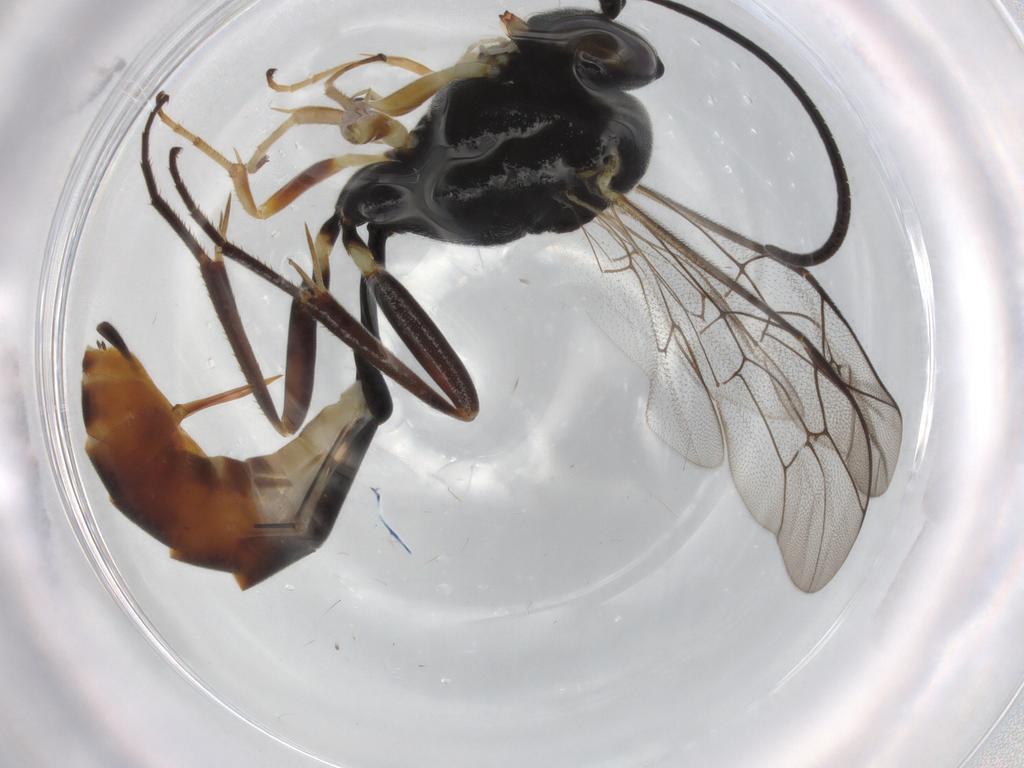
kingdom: Animalia
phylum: Arthropoda
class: Insecta
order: Hymenoptera
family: Ichneumonidae
